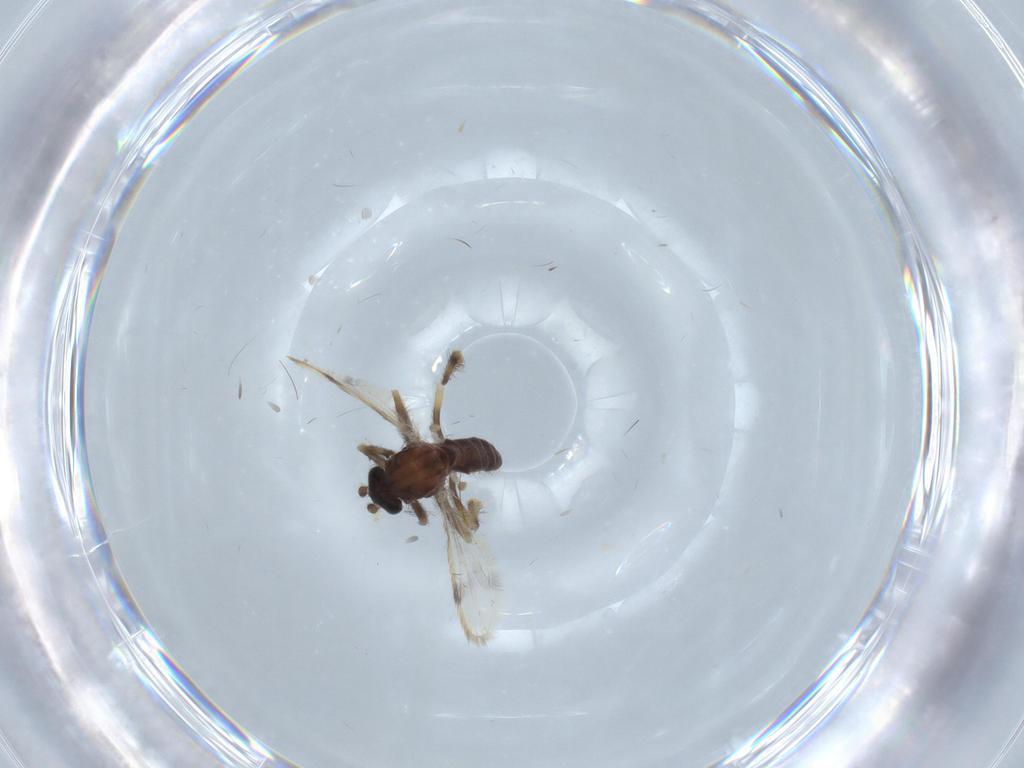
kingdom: Animalia
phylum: Arthropoda
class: Insecta
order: Diptera
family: Corethrellidae
